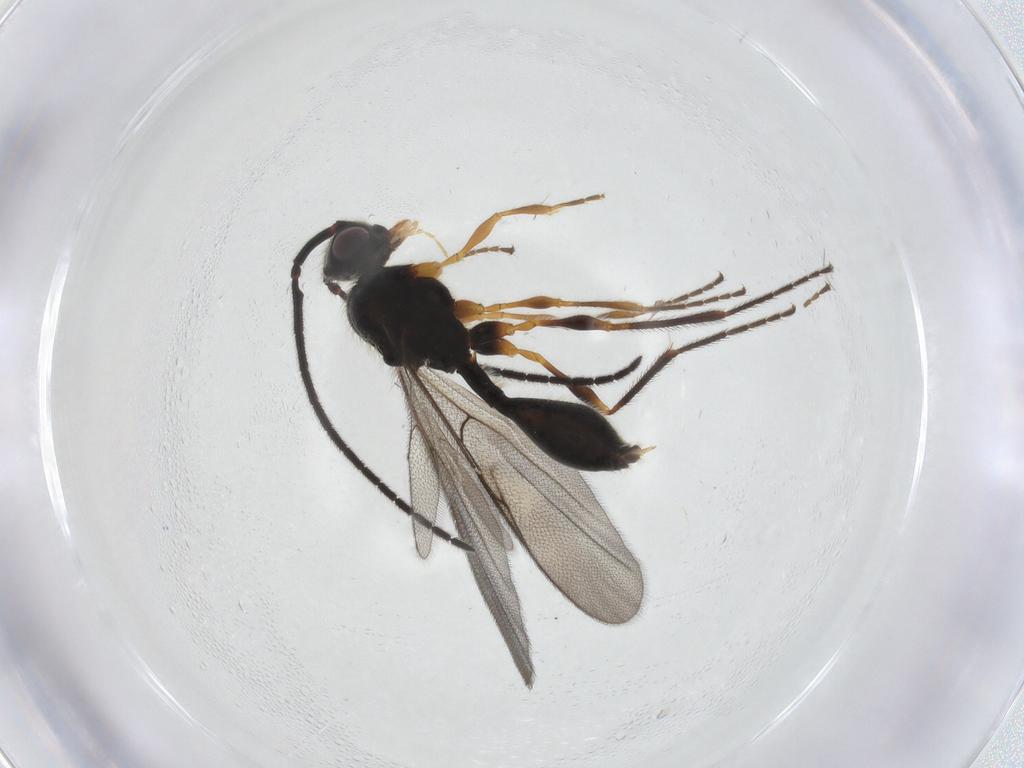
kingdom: Animalia
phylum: Arthropoda
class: Insecta
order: Hymenoptera
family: Diapriidae
